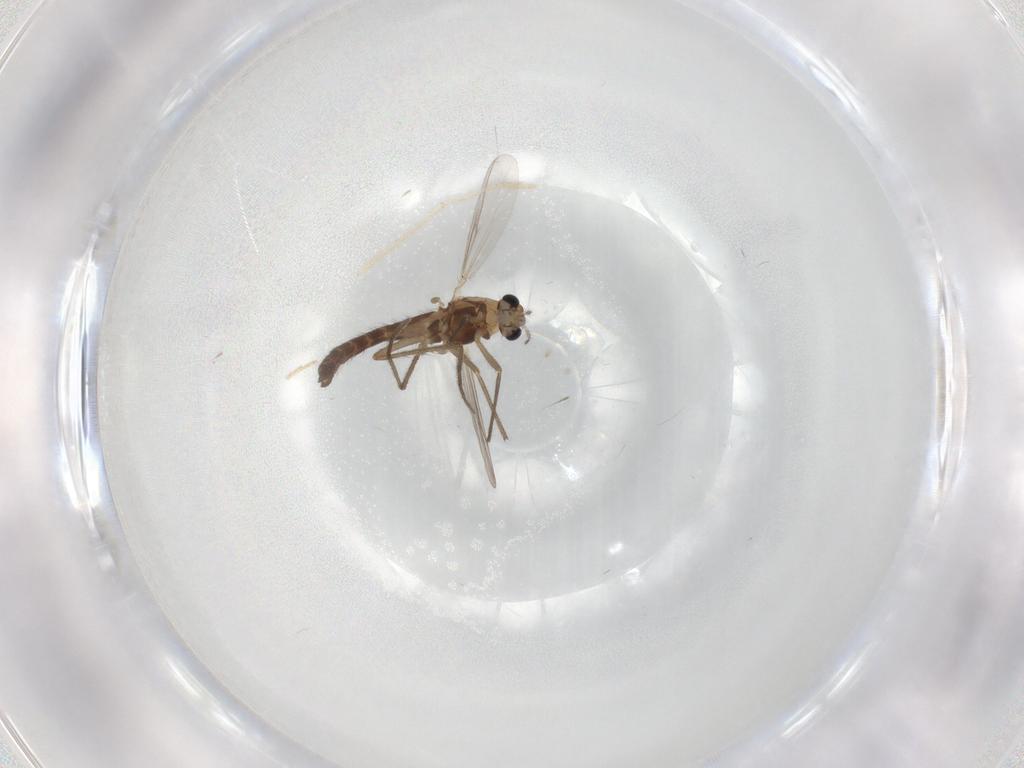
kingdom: Animalia
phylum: Arthropoda
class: Insecta
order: Diptera
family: Chironomidae
